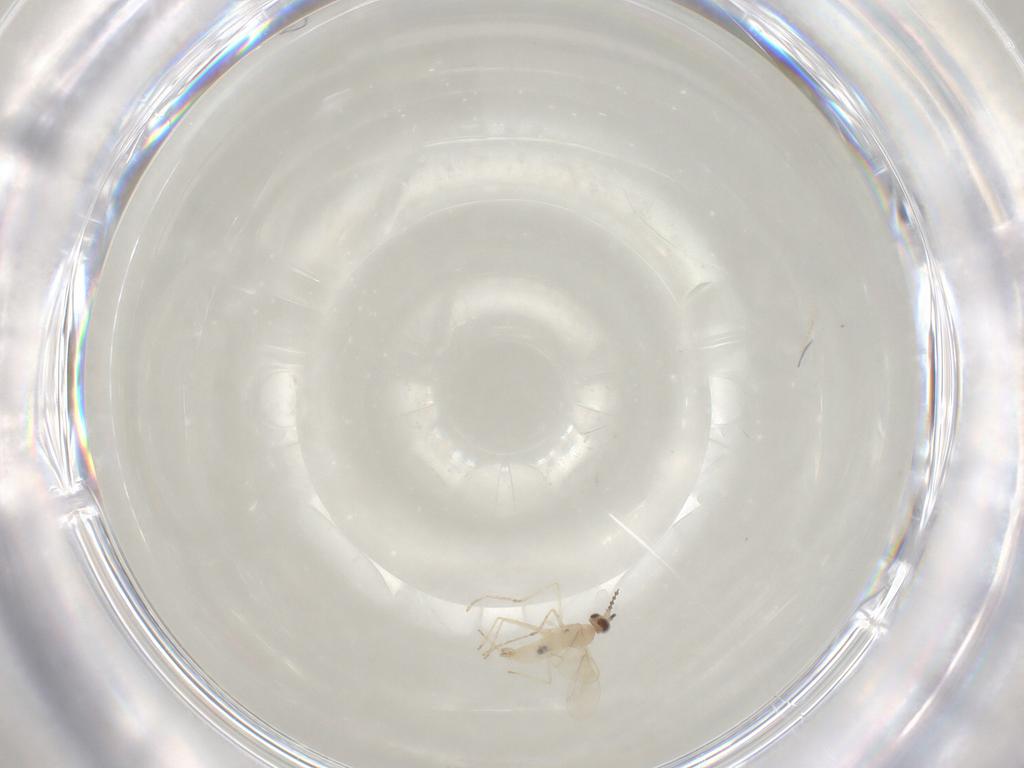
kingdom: Animalia
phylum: Arthropoda
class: Insecta
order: Diptera
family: Cecidomyiidae
